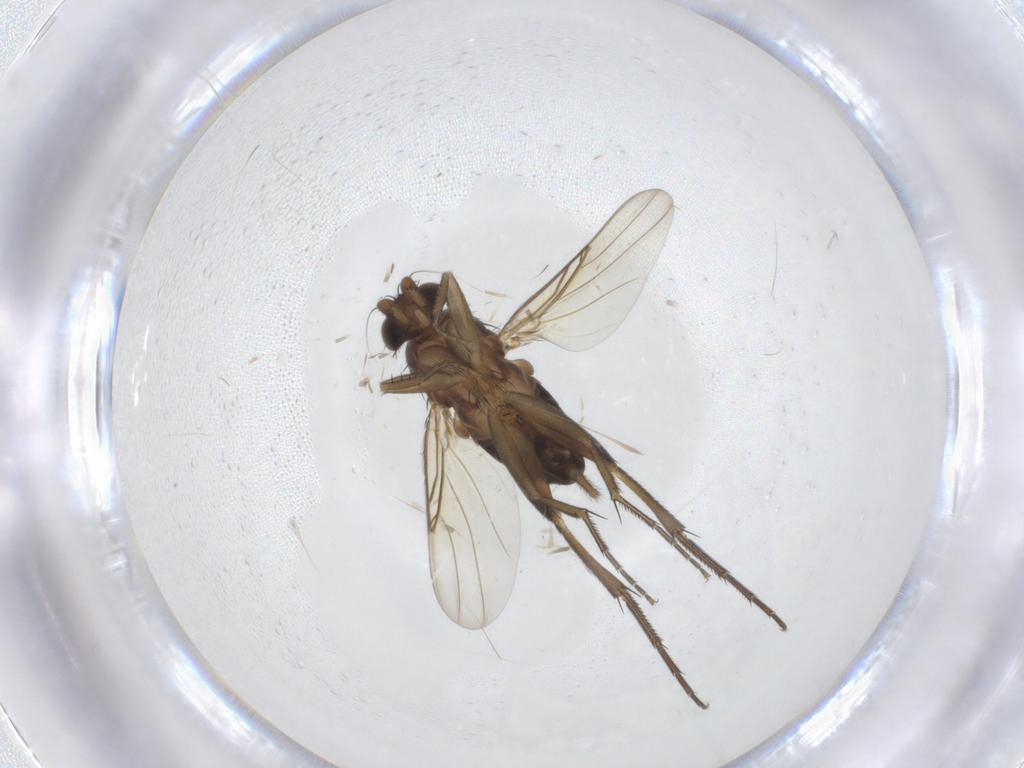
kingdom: Animalia
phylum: Arthropoda
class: Insecta
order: Diptera
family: Phoridae
